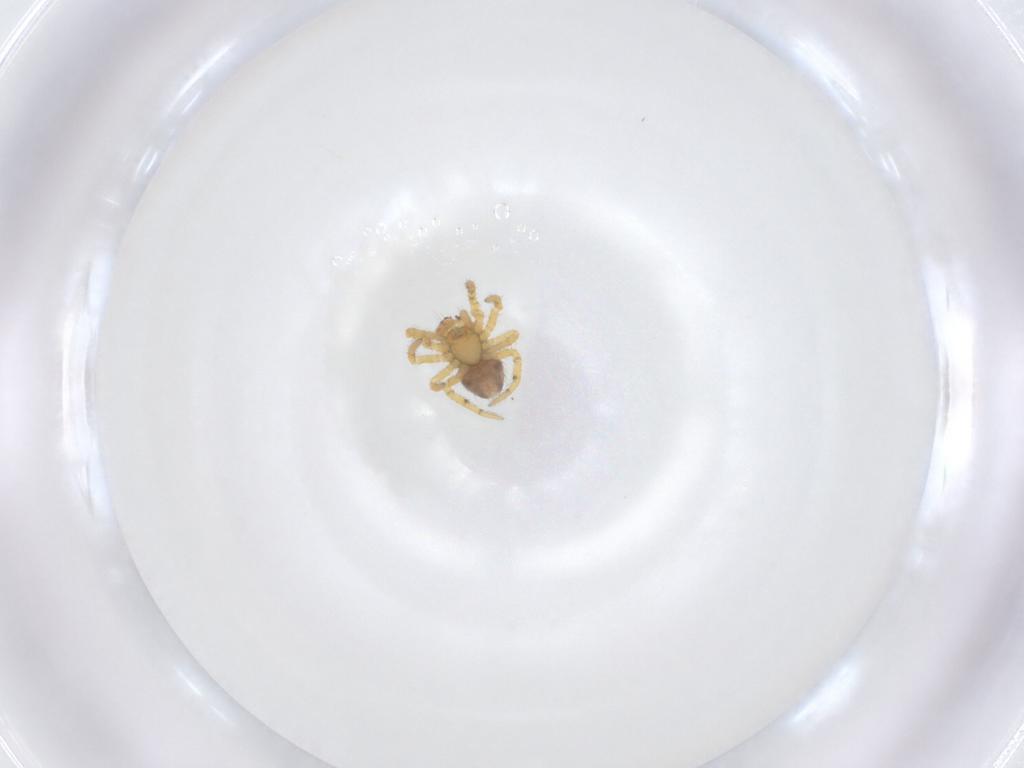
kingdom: Animalia
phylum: Arthropoda
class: Arachnida
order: Araneae
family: Theridiidae
